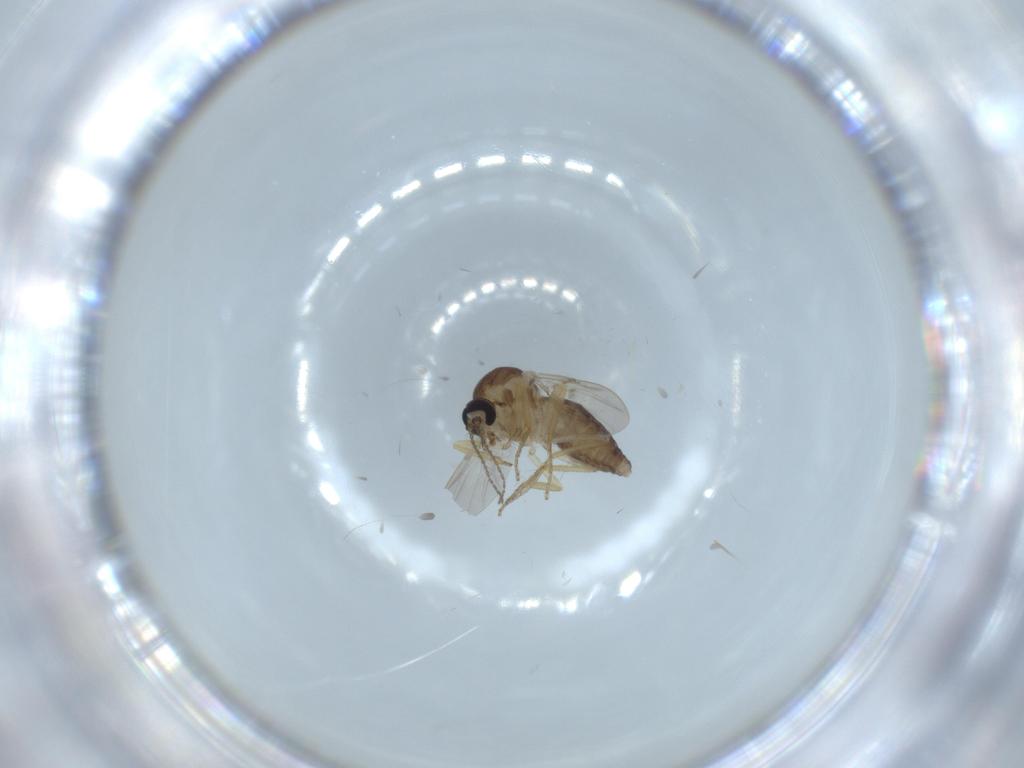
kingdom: Animalia
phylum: Arthropoda
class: Insecta
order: Diptera
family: Ceratopogonidae
